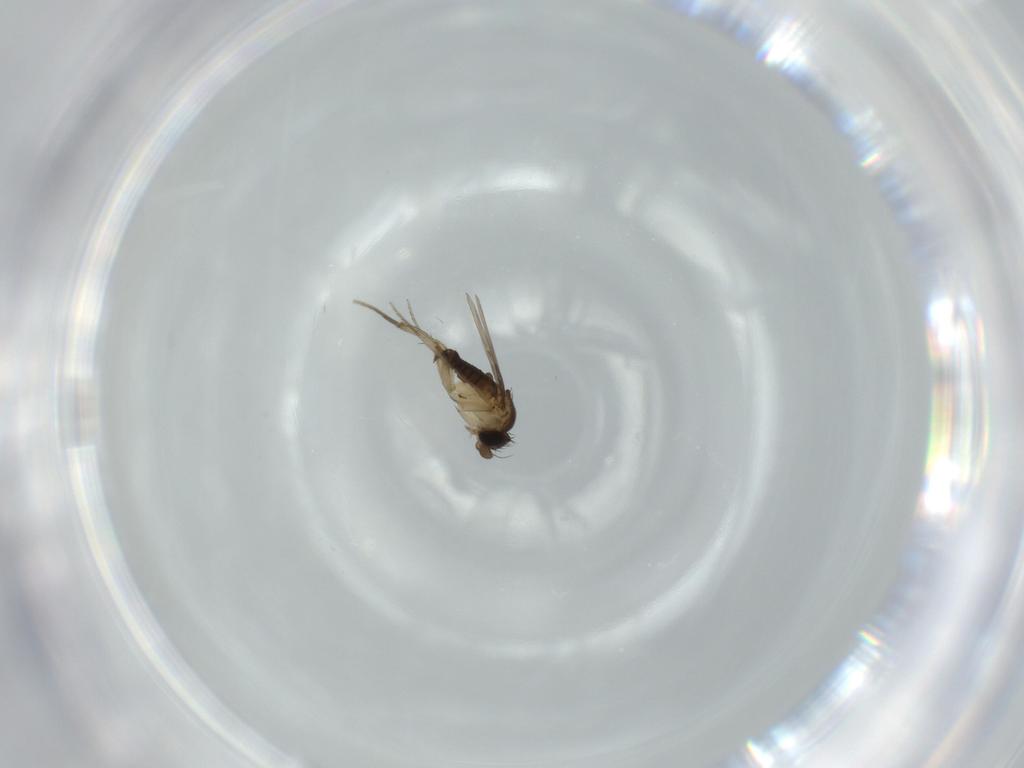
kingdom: Animalia
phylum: Arthropoda
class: Insecta
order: Diptera
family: Phoridae
